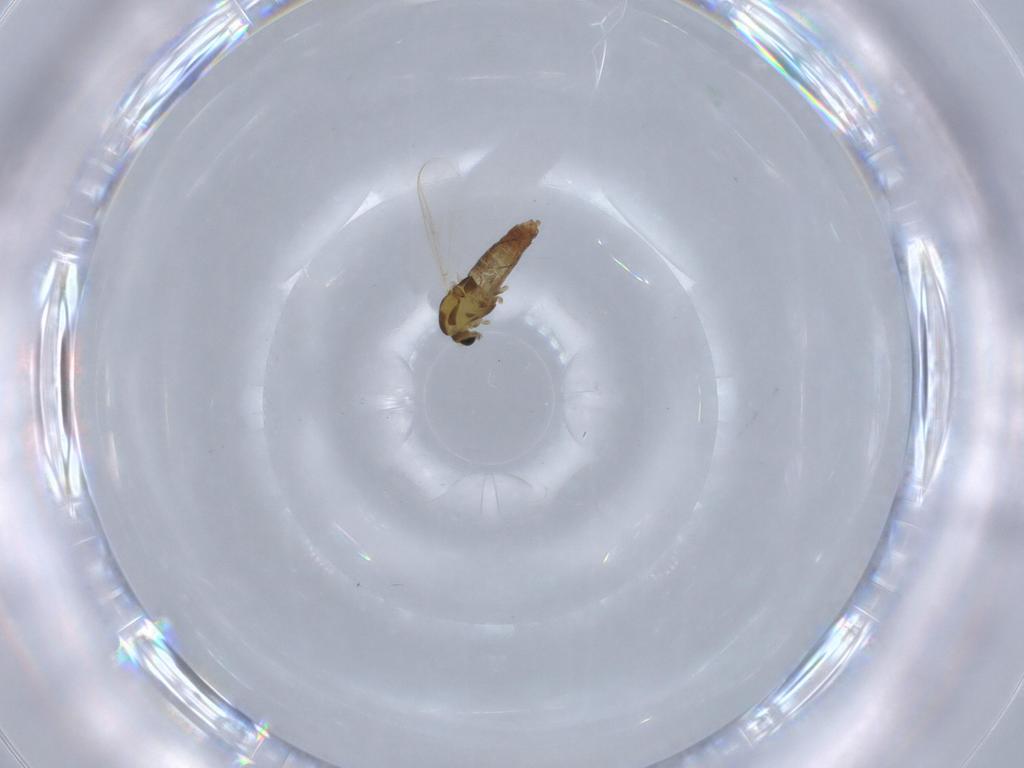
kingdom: Animalia
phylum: Arthropoda
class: Insecta
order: Diptera
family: Chironomidae
